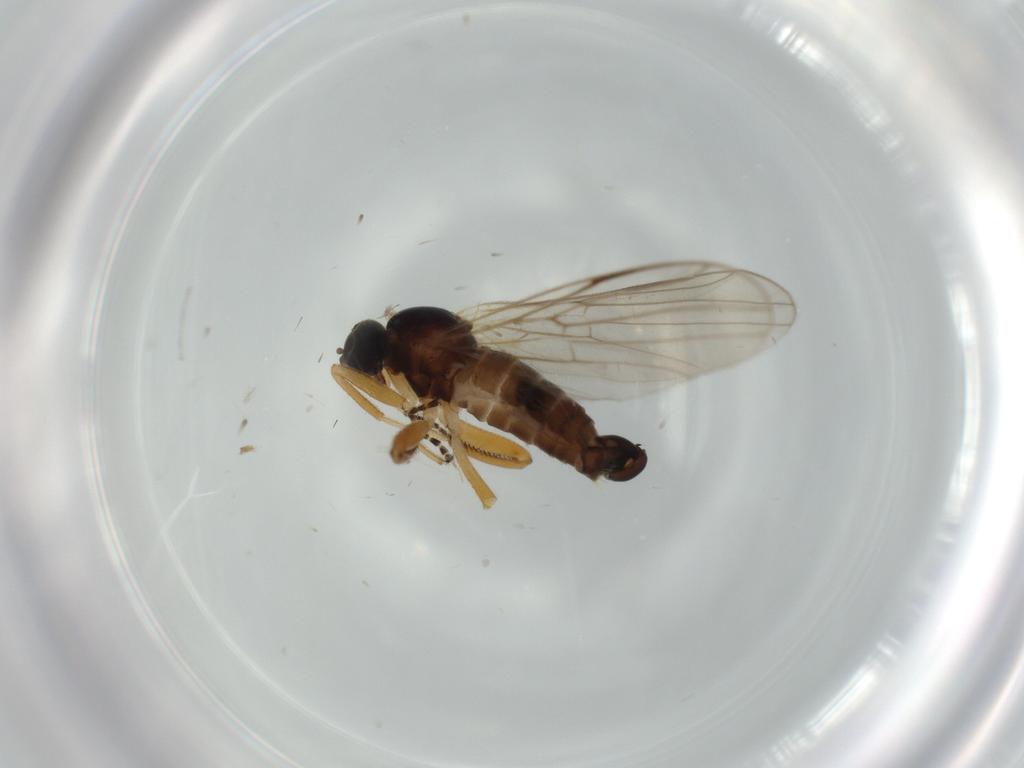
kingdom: Animalia
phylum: Arthropoda
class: Insecta
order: Diptera
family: Hybotidae
